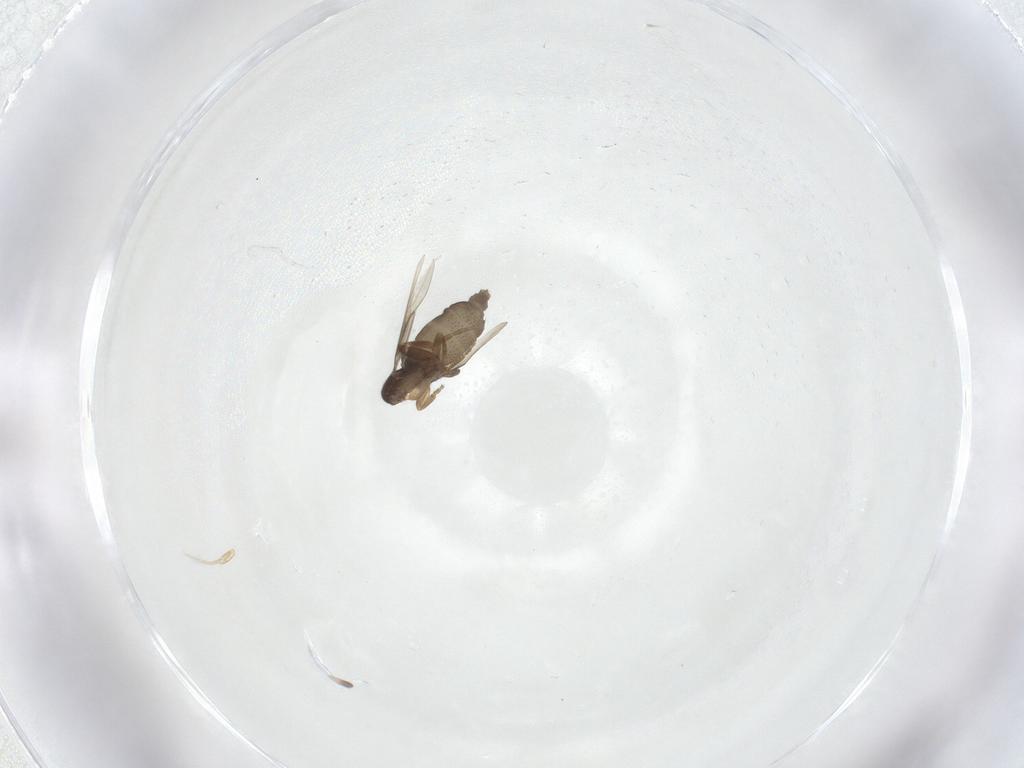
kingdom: Animalia
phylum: Arthropoda
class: Insecta
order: Diptera
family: Phoridae
